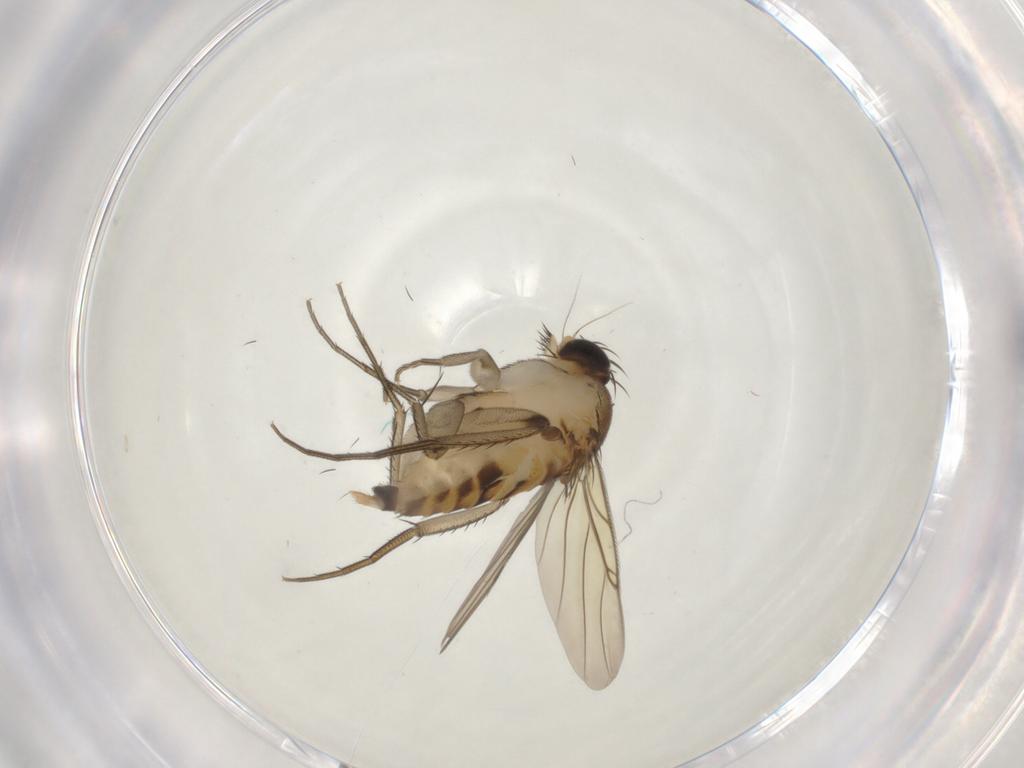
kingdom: Animalia
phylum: Arthropoda
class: Insecta
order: Diptera
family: Phoridae
